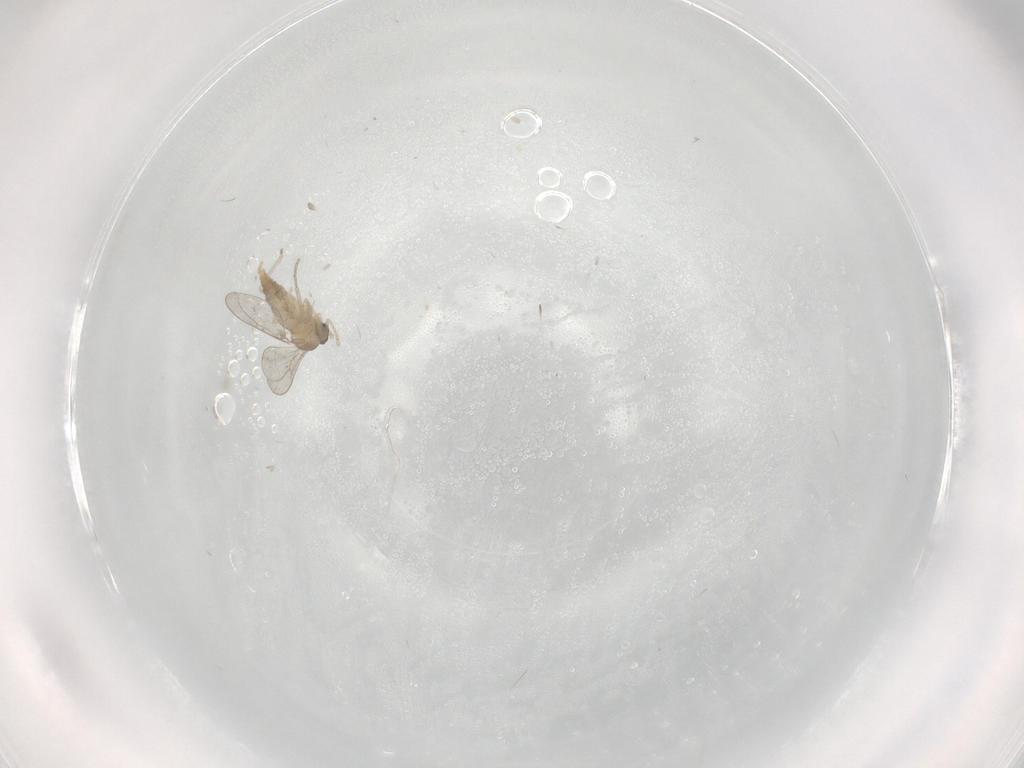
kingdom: Animalia
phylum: Arthropoda
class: Insecta
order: Diptera
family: Cecidomyiidae
